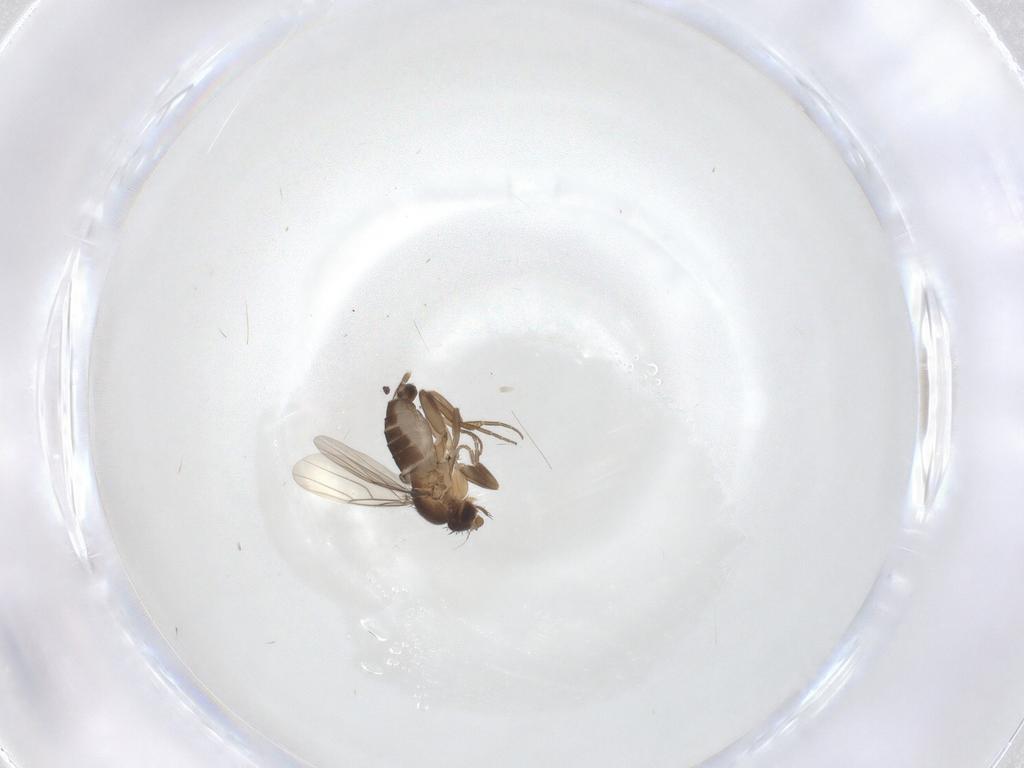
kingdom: Animalia
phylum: Arthropoda
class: Insecta
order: Diptera
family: Phoridae
